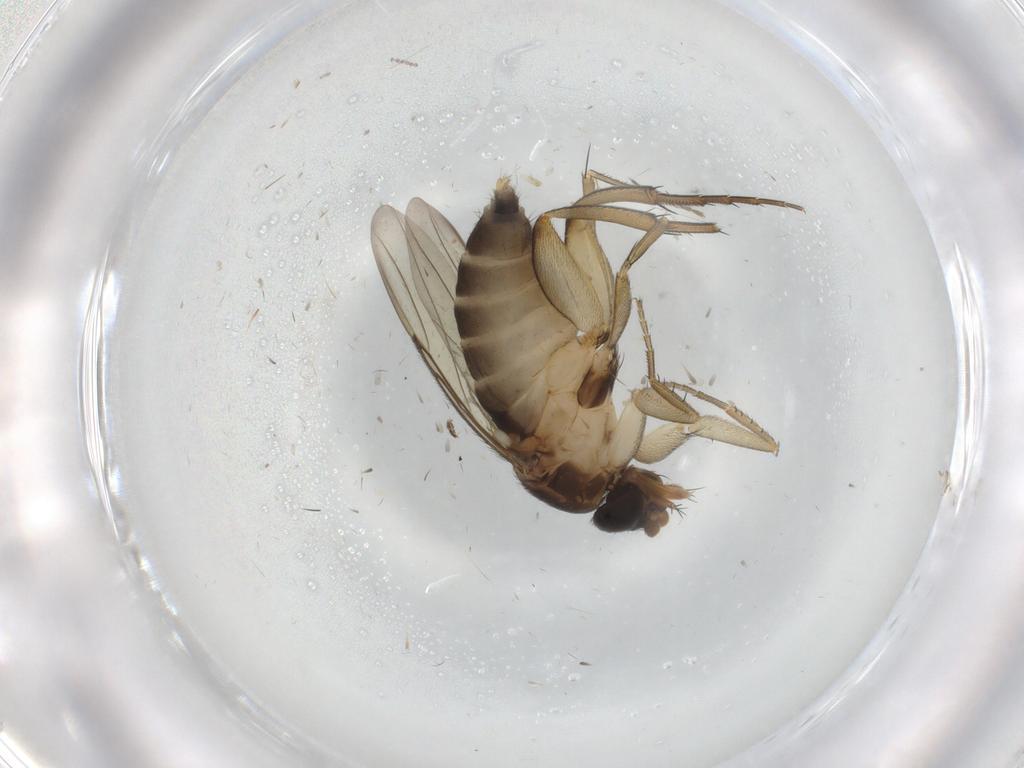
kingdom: Animalia
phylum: Arthropoda
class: Insecta
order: Diptera
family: Phoridae
